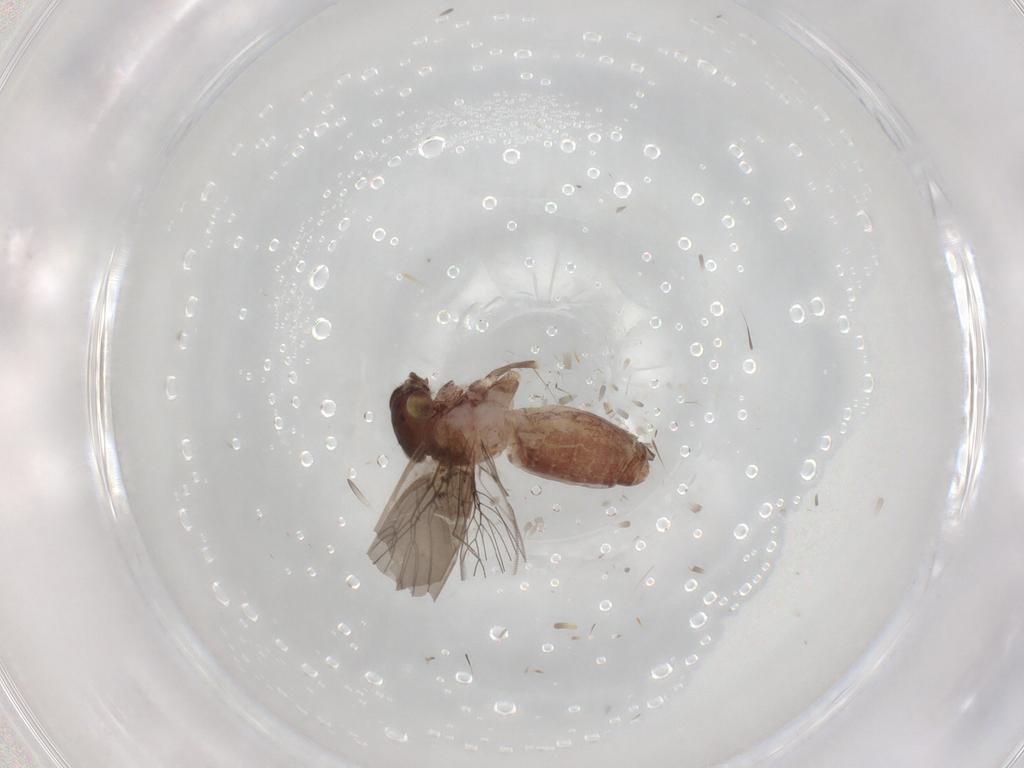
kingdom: Animalia
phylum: Arthropoda
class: Insecta
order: Psocodea
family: Lepidopsocidae
